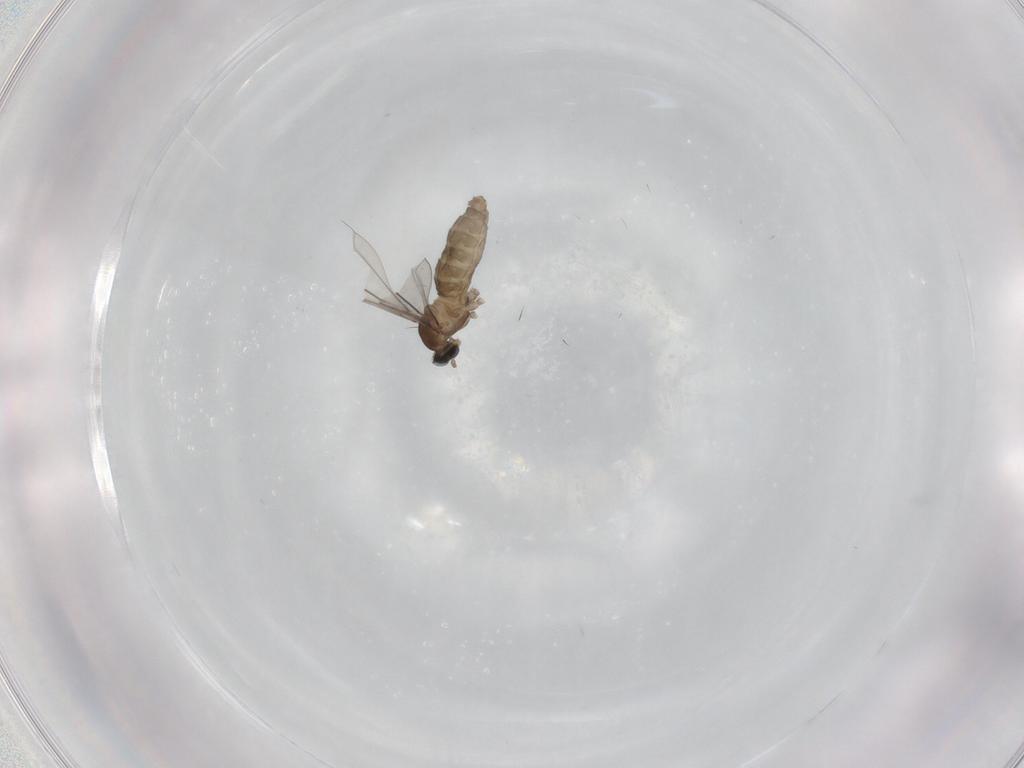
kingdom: Animalia
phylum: Arthropoda
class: Insecta
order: Diptera
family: Cecidomyiidae
